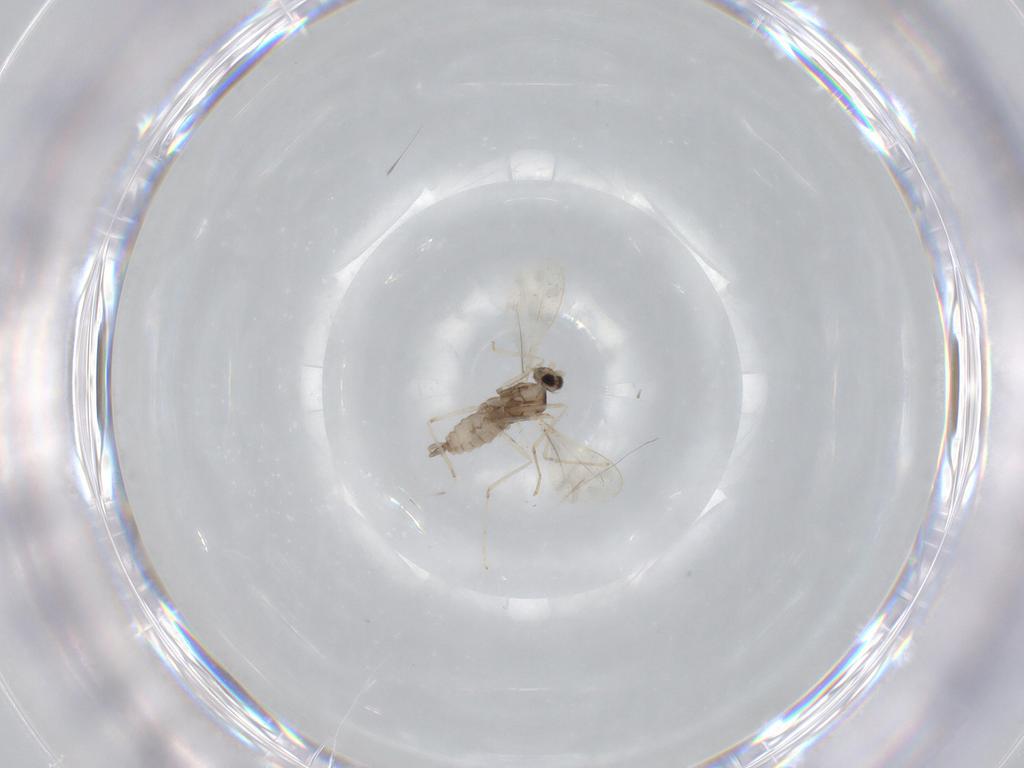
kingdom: Animalia
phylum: Arthropoda
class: Insecta
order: Diptera
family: Cecidomyiidae
